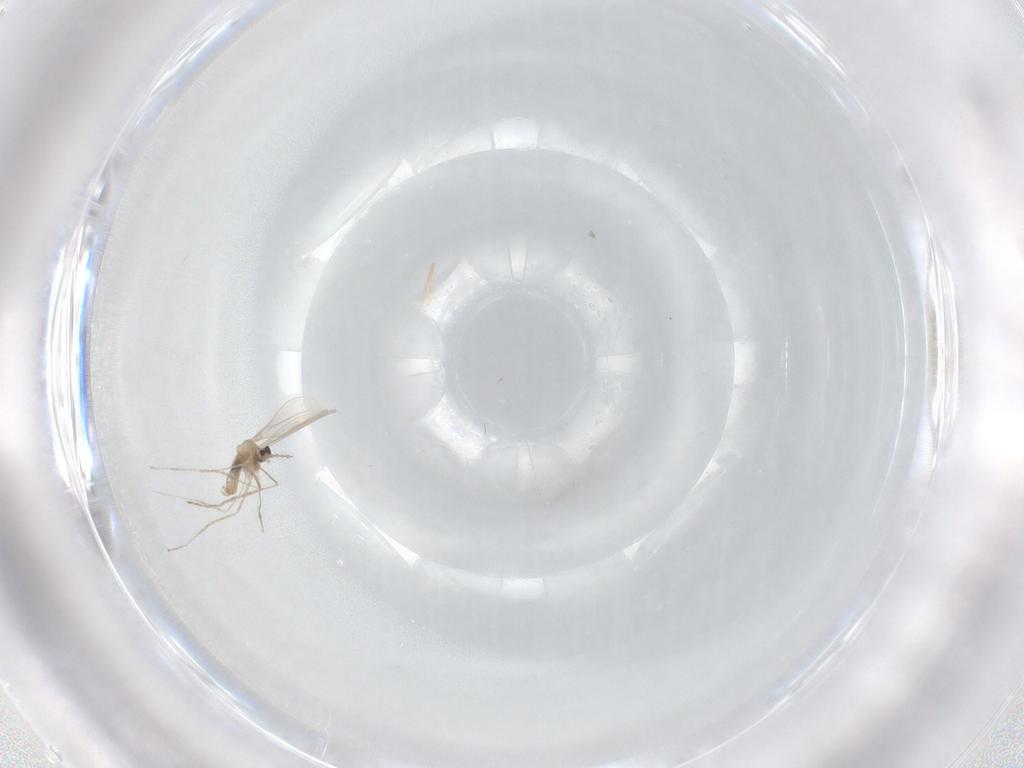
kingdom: Animalia
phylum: Arthropoda
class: Insecta
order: Diptera
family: Cecidomyiidae
